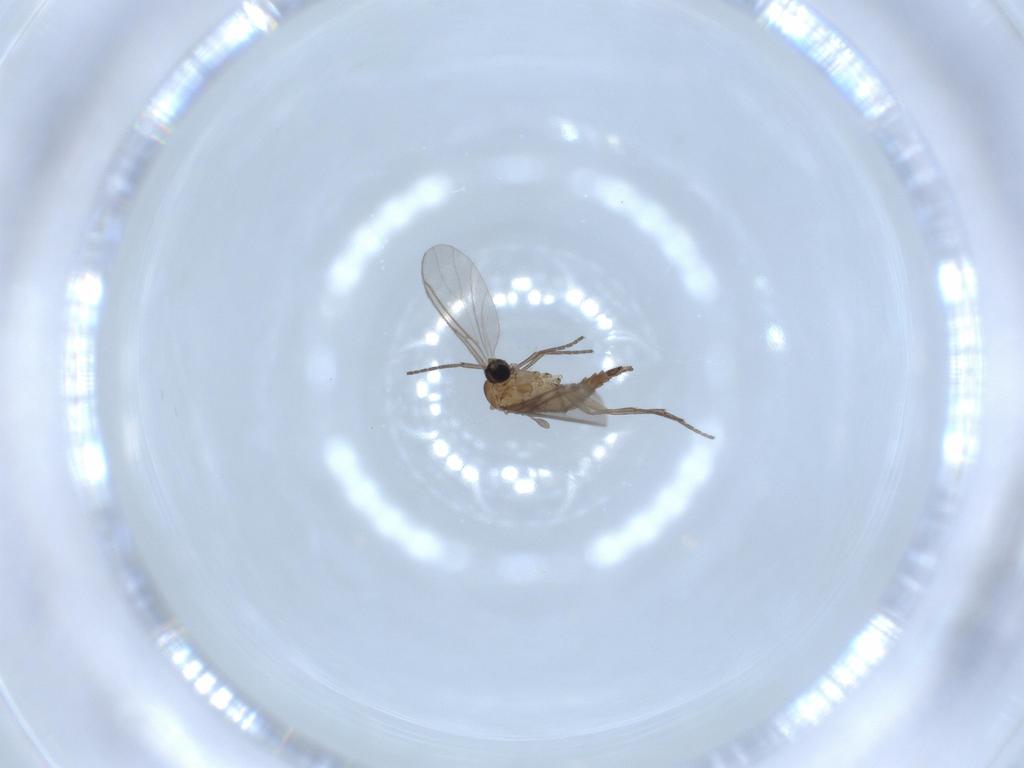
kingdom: Animalia
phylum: Arthropoda
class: Insecta
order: Diptera
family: Sciaridae
